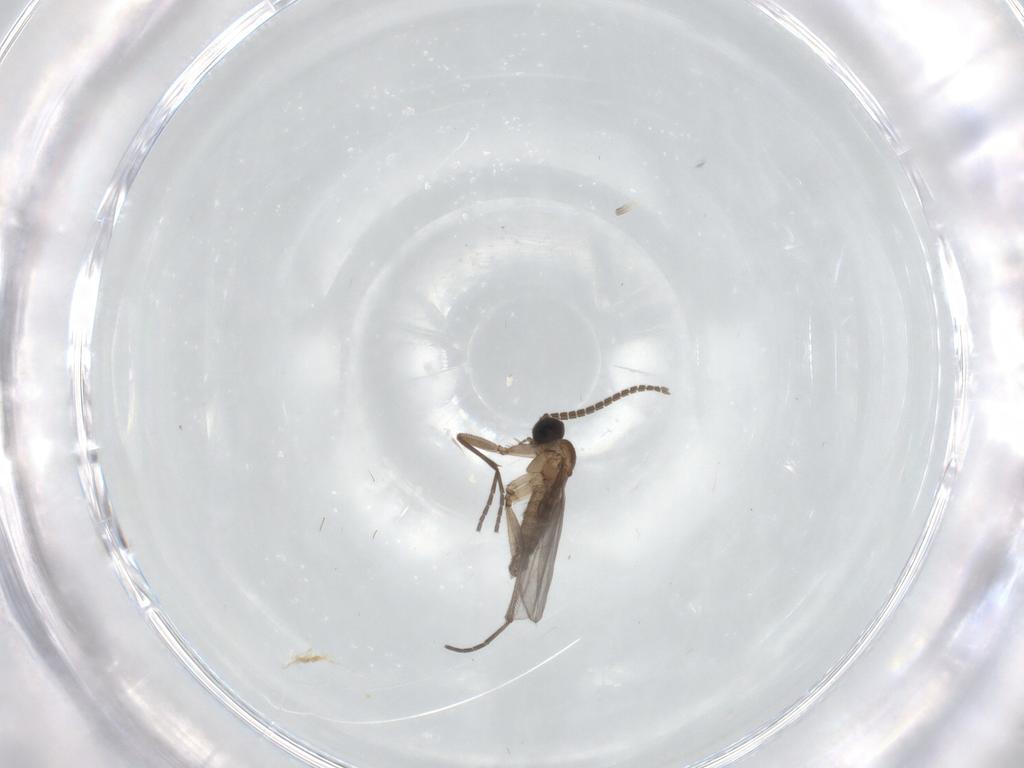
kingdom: Animalia
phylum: Arthropoda
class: Insecta
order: Diptera
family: Sciaridae
